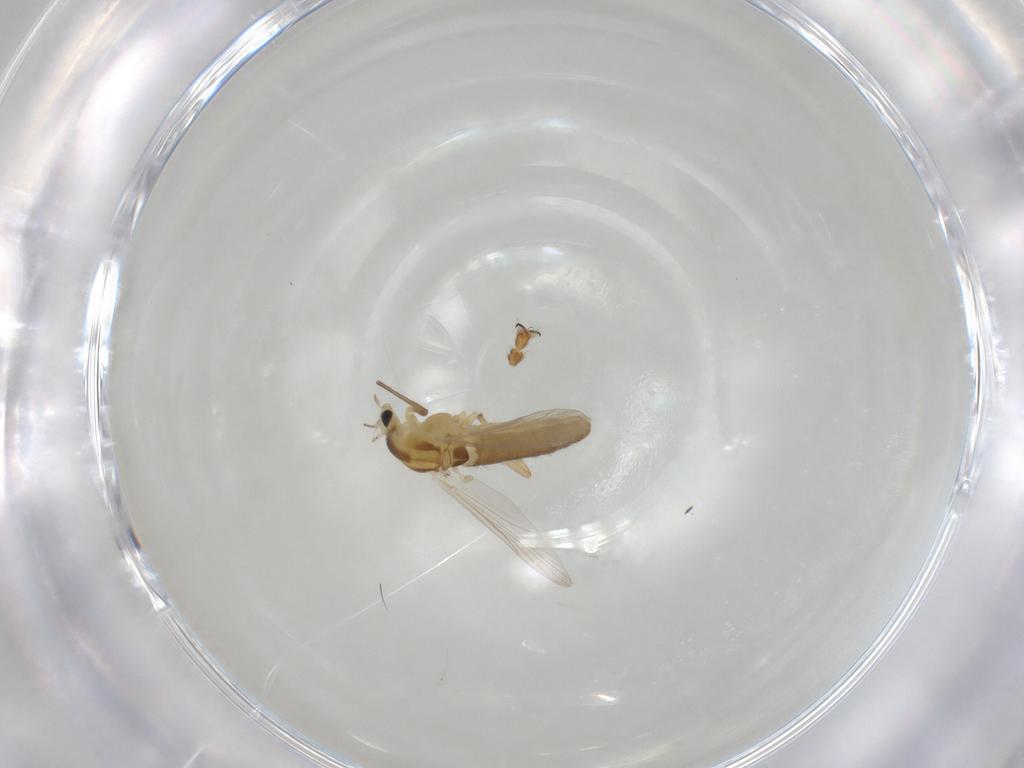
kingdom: Animalia
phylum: Arthropoda
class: Insecta
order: Diptera
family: Chironomidae
